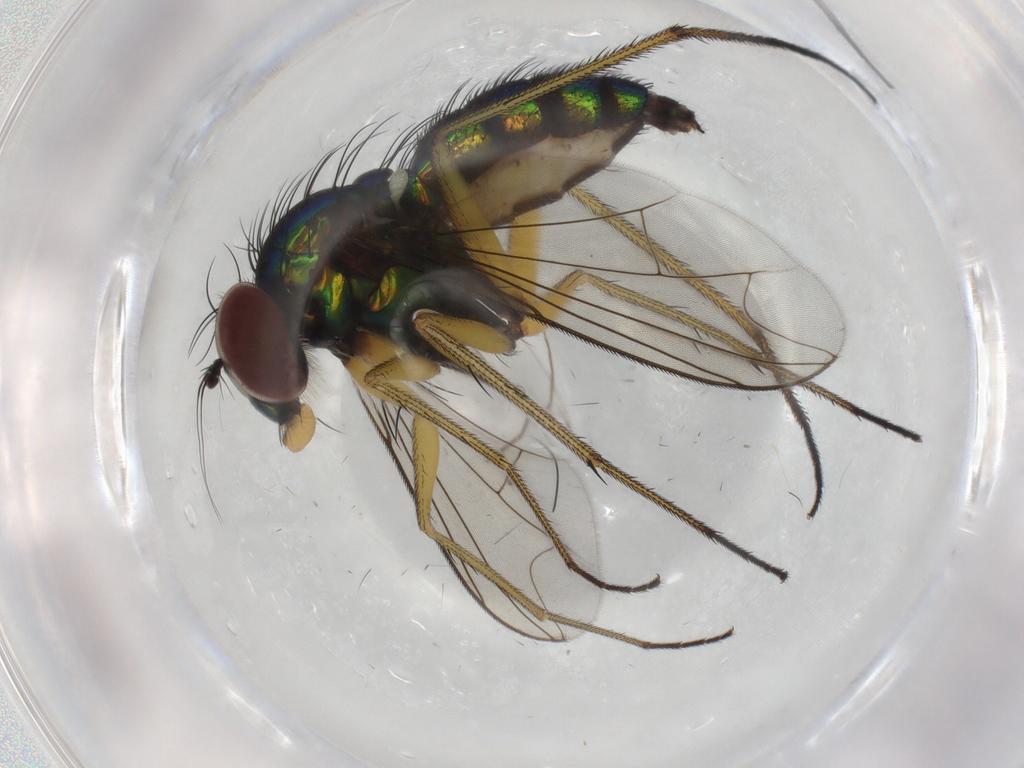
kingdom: Animalia
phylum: Arthropoda
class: Insecta
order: Diptera
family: Dolichopodidae
